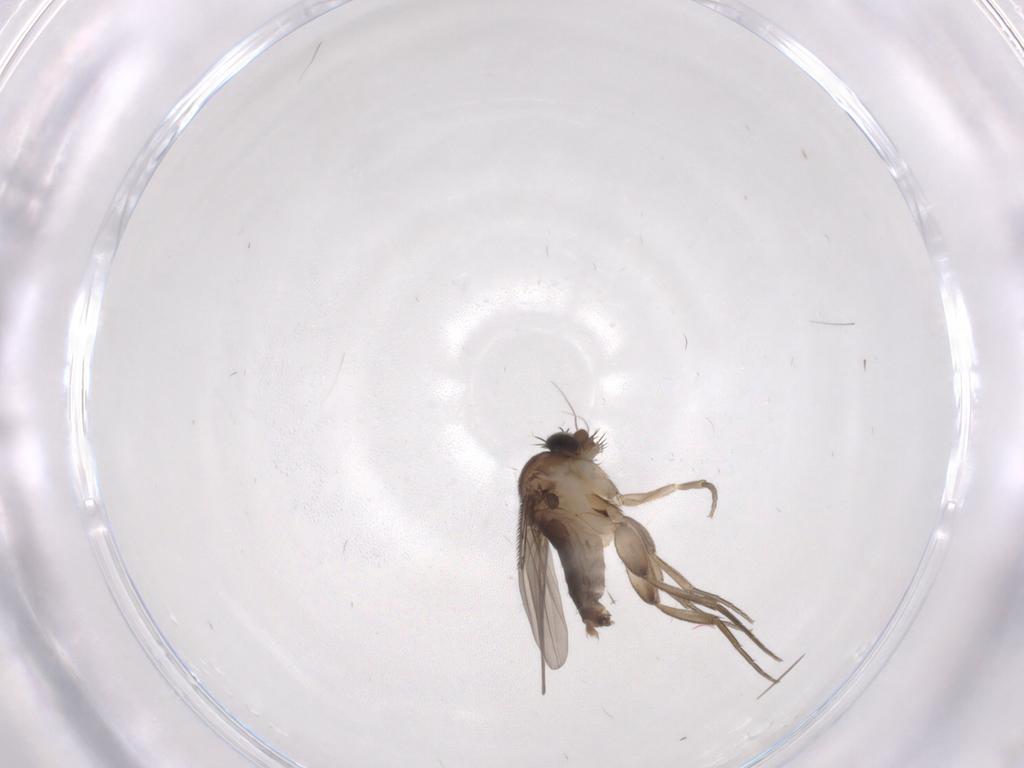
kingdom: Animalia
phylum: Arthropoda
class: Insecta
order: Diptera
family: Phoridae
